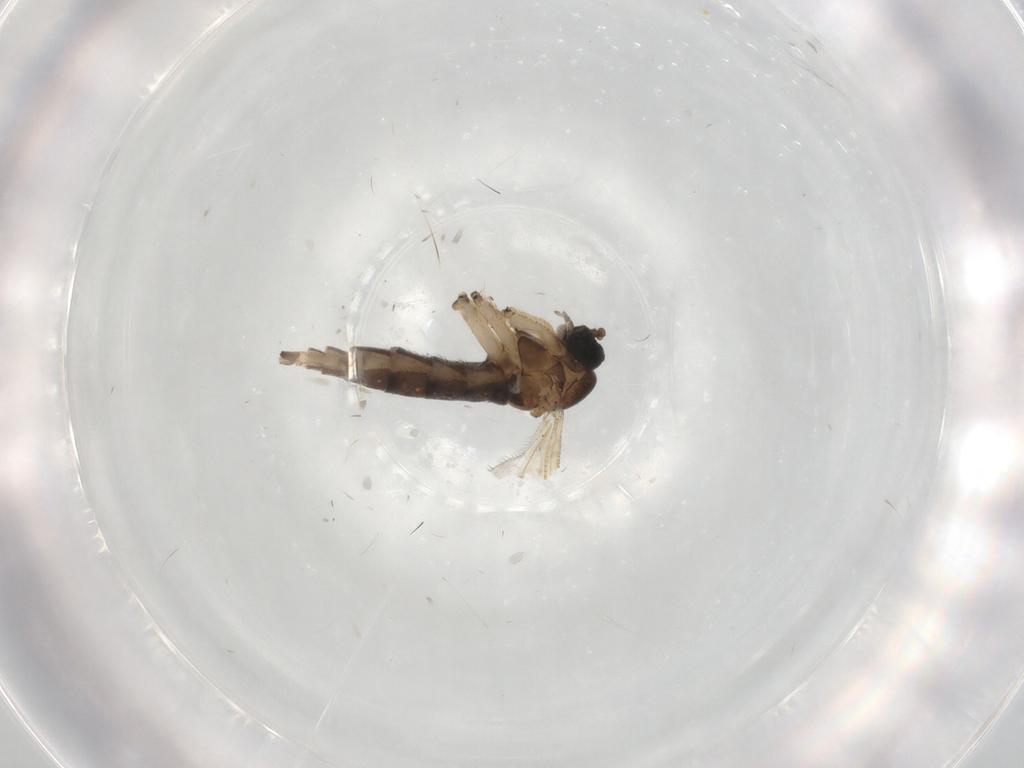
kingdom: Animalia
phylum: Arthropoda
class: Insecta
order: Diptera
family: Sciaridae
